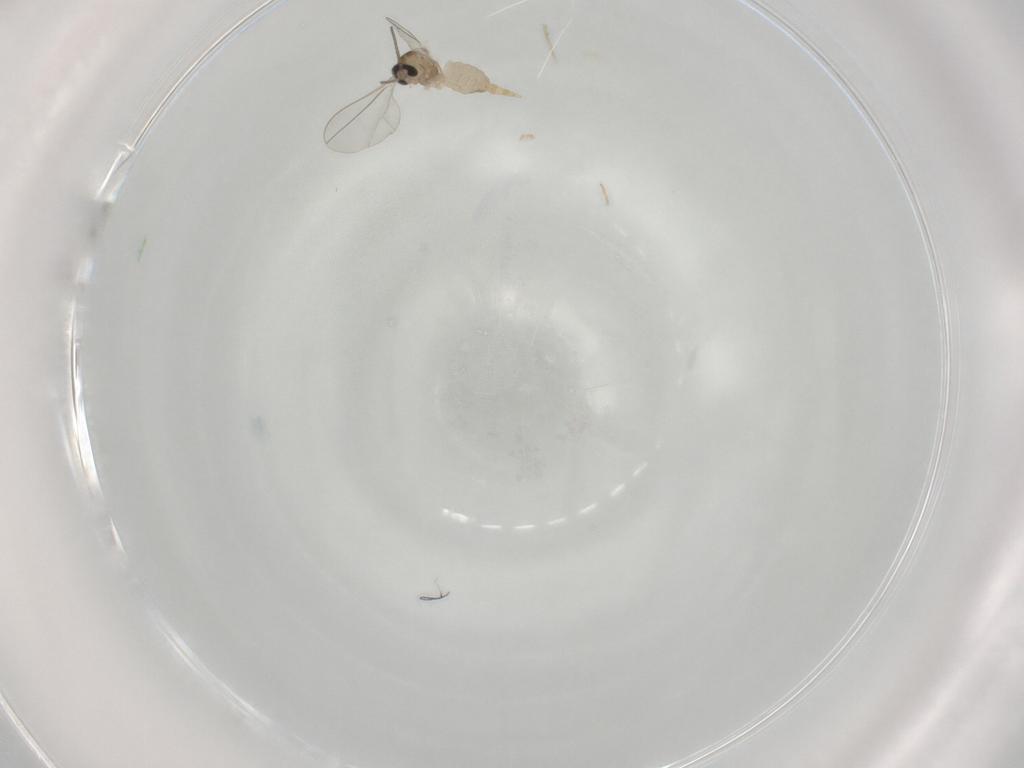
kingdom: Animalia
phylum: Arthropoda
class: Insecta
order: Diptera
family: Cecidomyiidae
